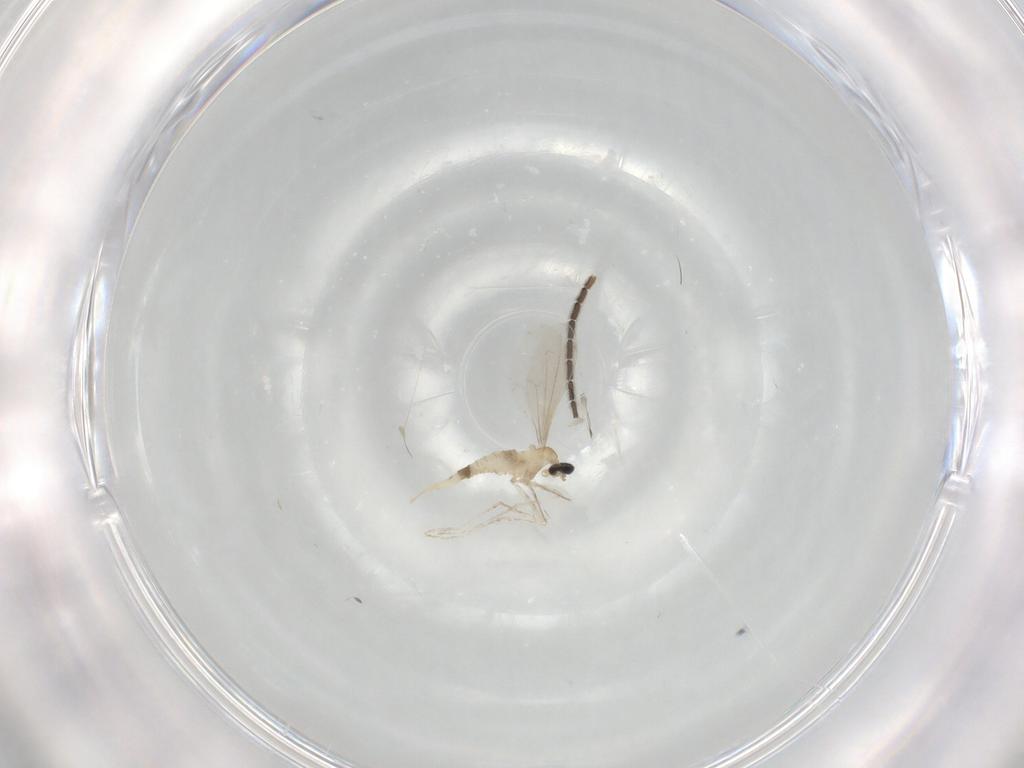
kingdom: Animalia
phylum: Arthropoda
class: Insecta
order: Diptera
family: Sciaridae
